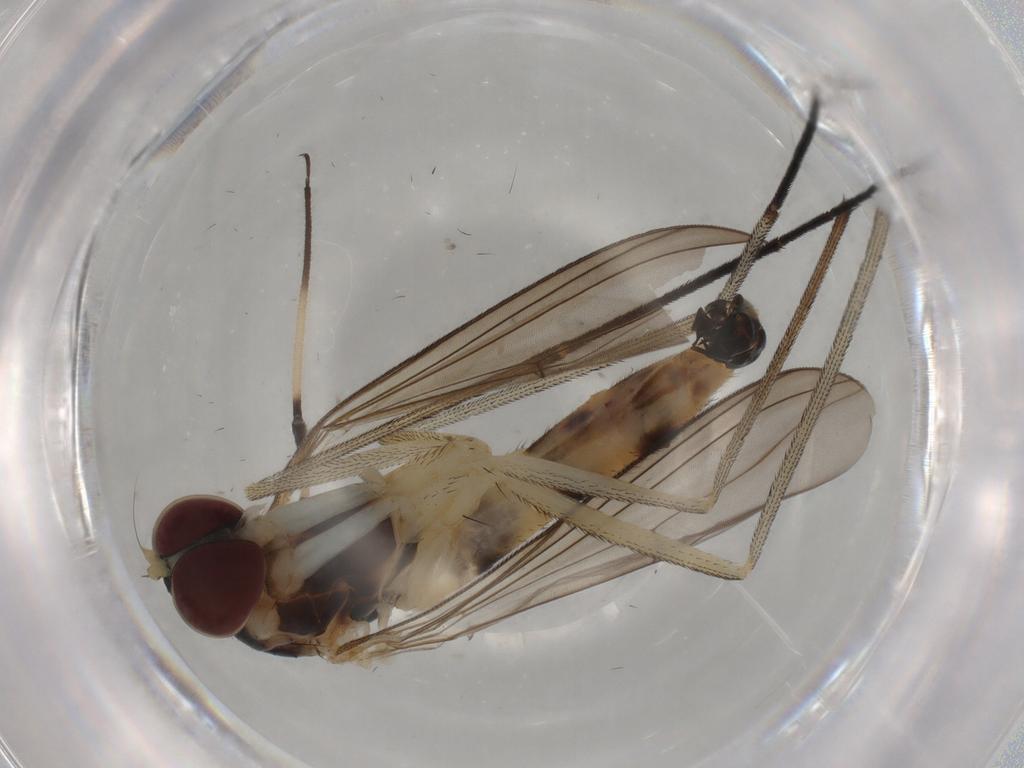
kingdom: Animalia
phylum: Arthropoda
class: Insecta
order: Diptera
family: Cecidomyiidae
